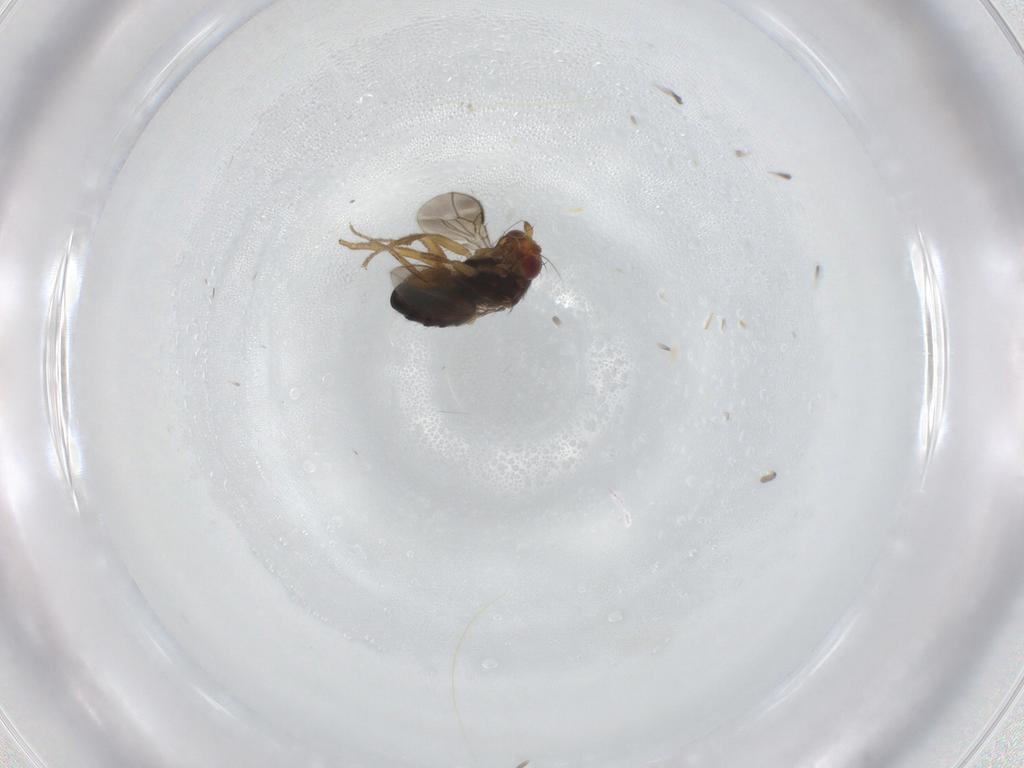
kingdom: Animalia
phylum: Arthropoda
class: Insecta
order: Diptera
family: Sphaeroceridae
